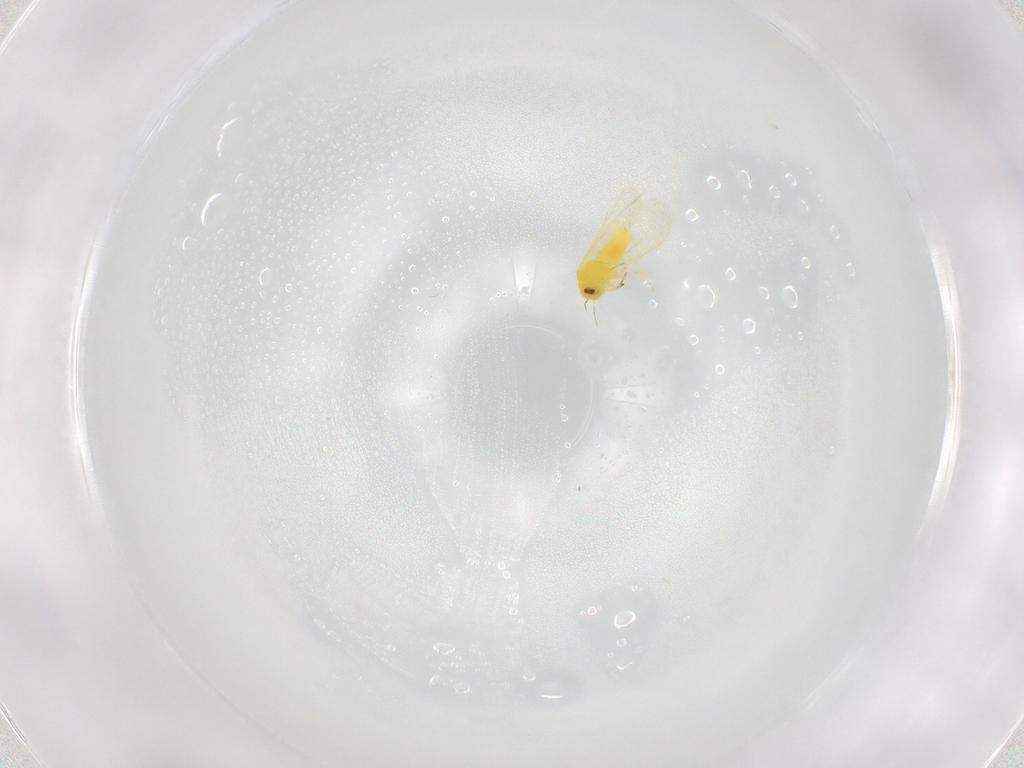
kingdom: Animalia
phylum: Arthropoda
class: Insecta
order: Hemiptera
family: Aleyrodidae
